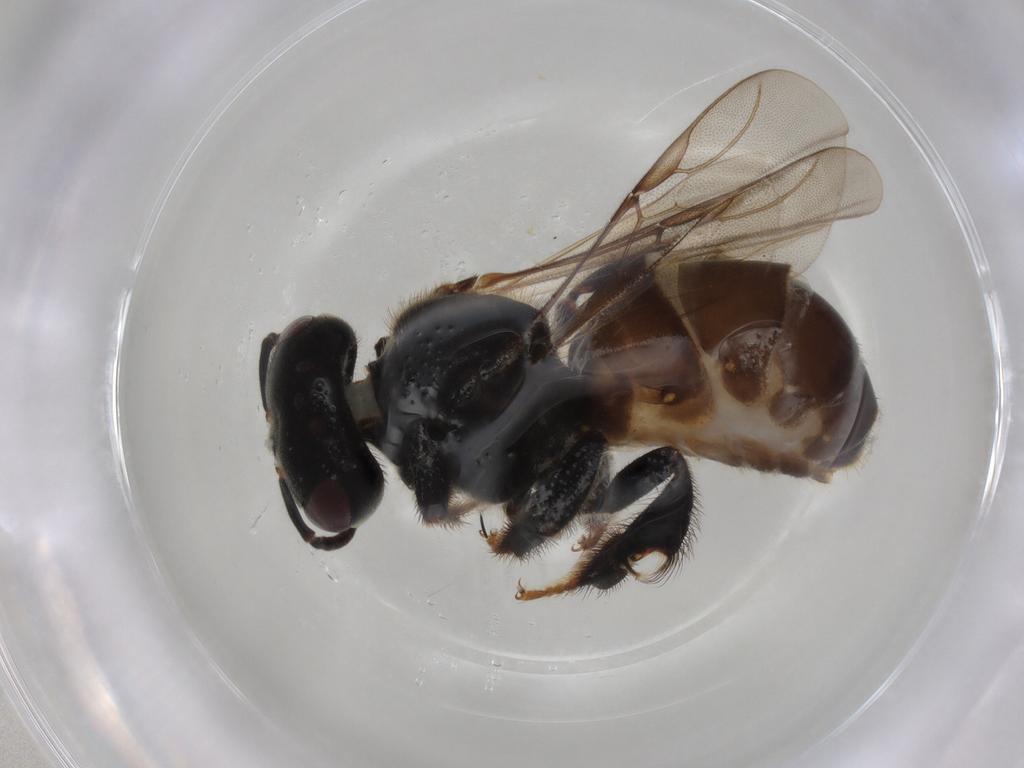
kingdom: Animalia
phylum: Arthropoda
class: Insecta
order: Hymenoptera
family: Apidae
